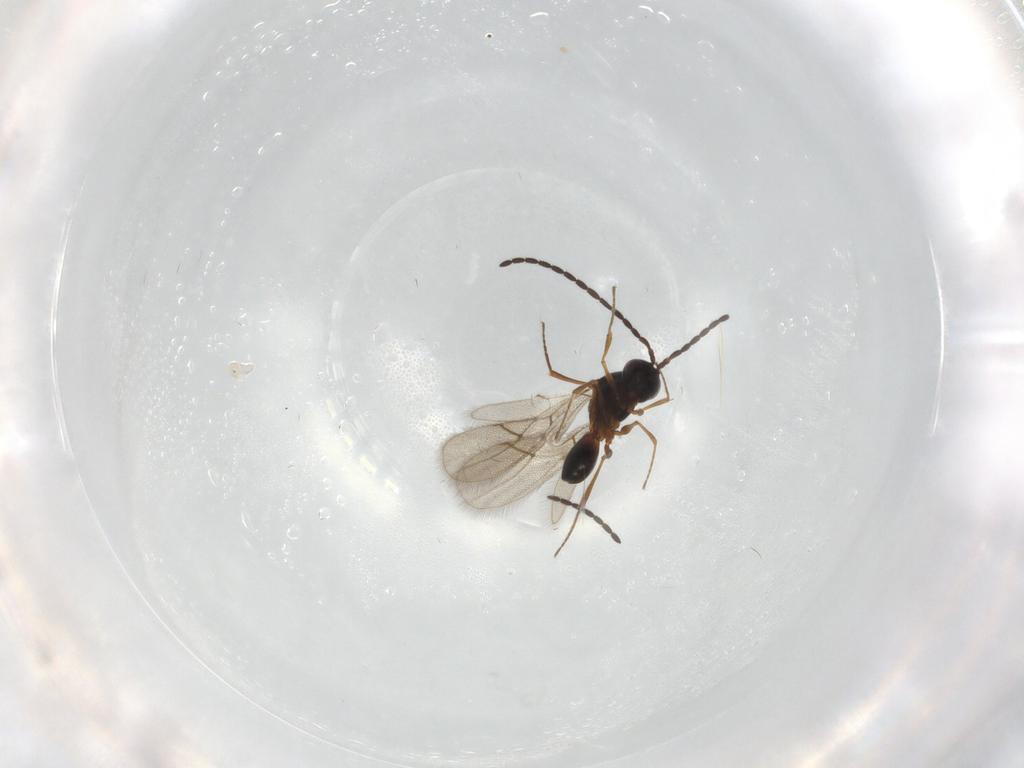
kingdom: Animalia
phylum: Arthropoda
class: Insecta
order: Hymenoptera
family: Figitidae
